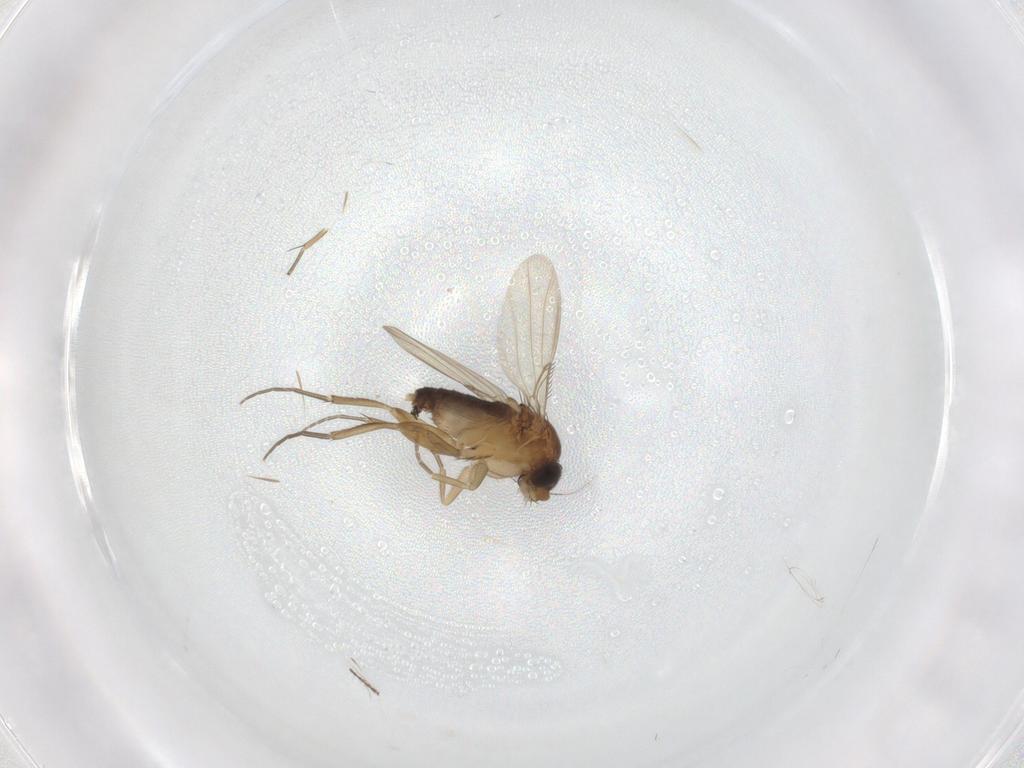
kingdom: Animalia
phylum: Arthropoda
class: Insecta
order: Diptera
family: Phoridae
